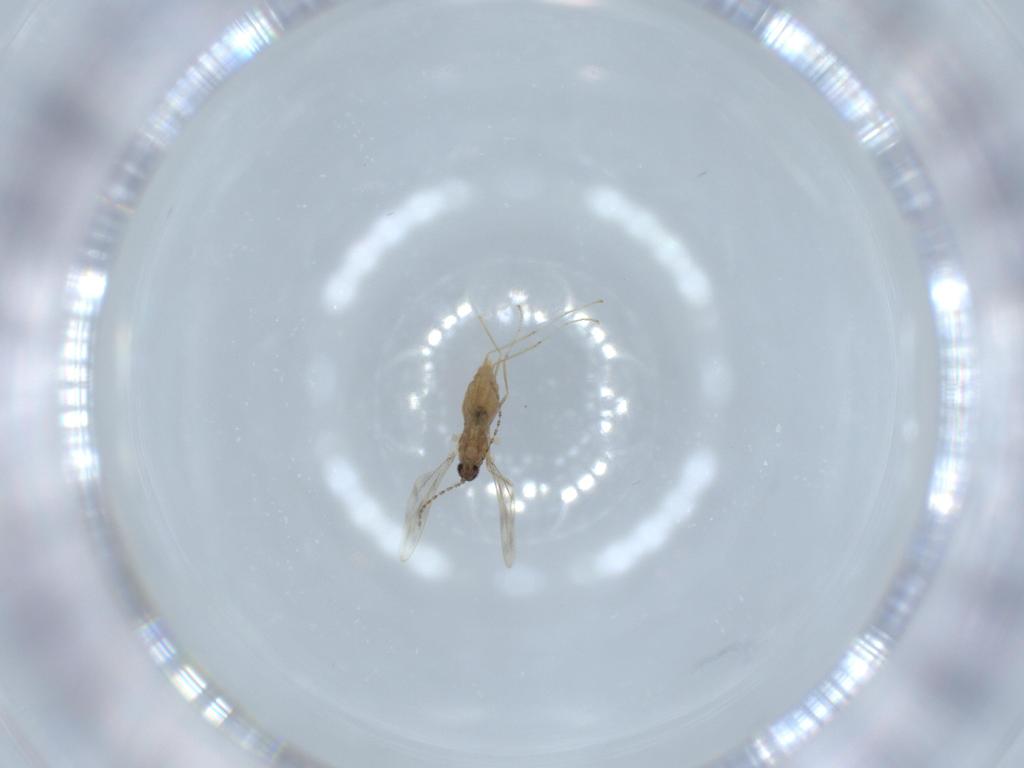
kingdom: Animalia
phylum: Arthropoda
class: Insecta
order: Diptera
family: Cecidomyiidae
